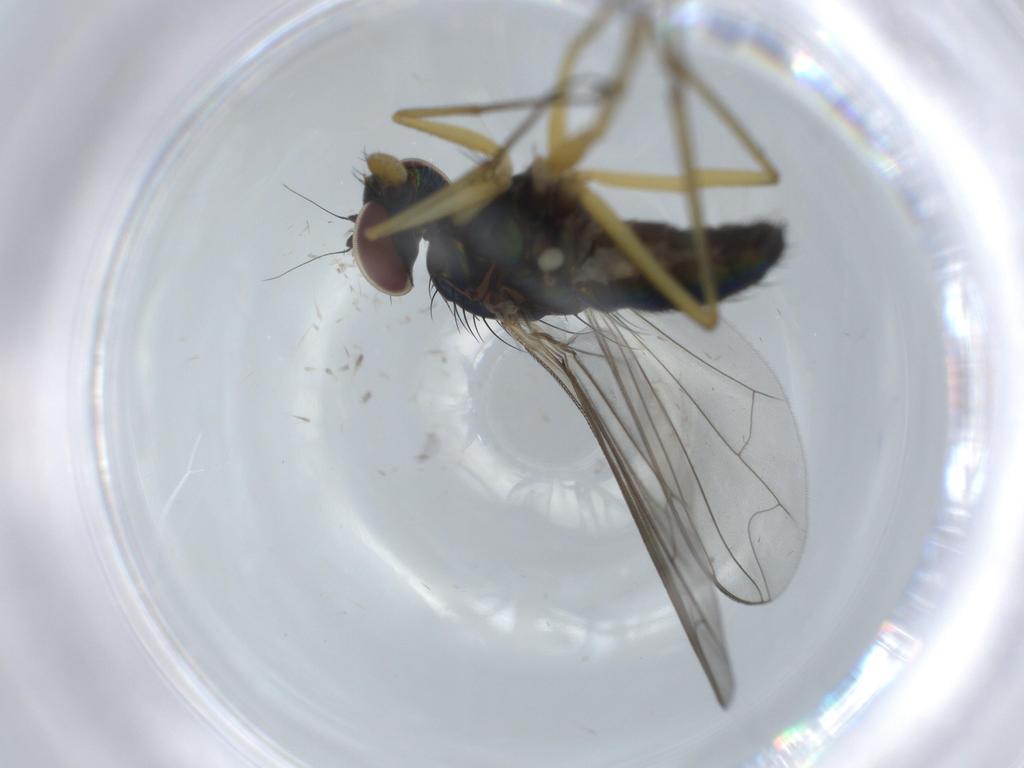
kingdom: Animalia
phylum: Arthropoda
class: Insecta
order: Diptera
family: Dolichopodidae
